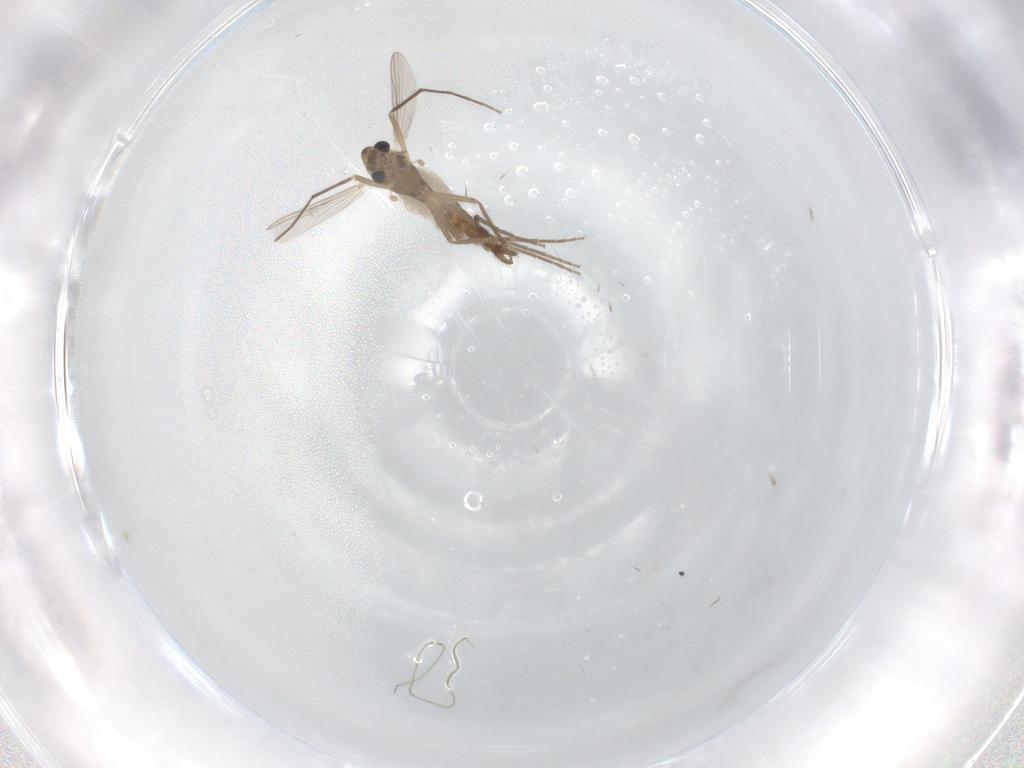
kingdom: Animalia
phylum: Arthropoda
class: Insecta
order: Diptera
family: Chironomidae
